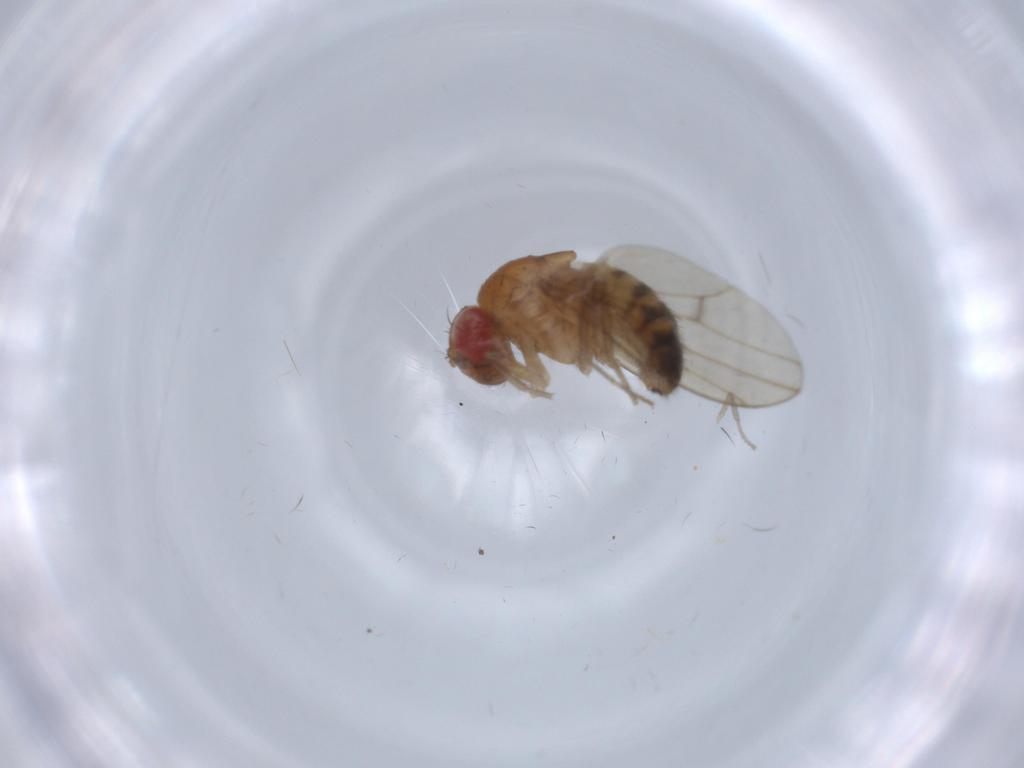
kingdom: Animalia
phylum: Arthropoda
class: Insecta
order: Diptera
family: Drosophilidae
